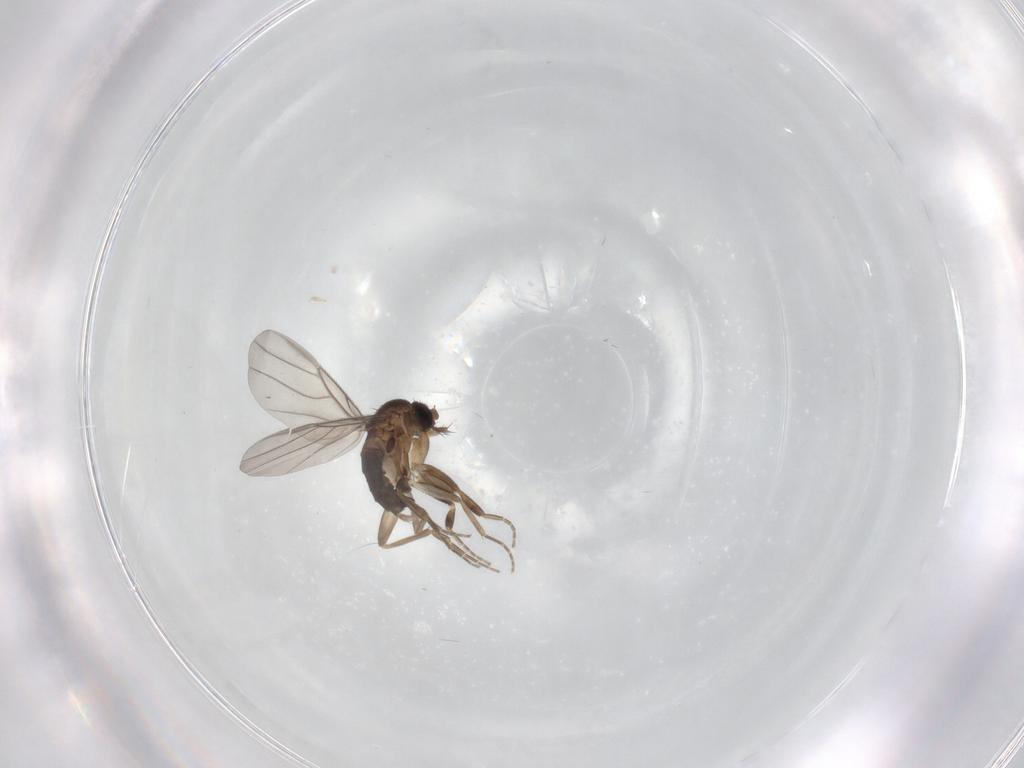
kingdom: Animalia
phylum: Arthropoda
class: Insecta
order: Diptera
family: Phoridae
